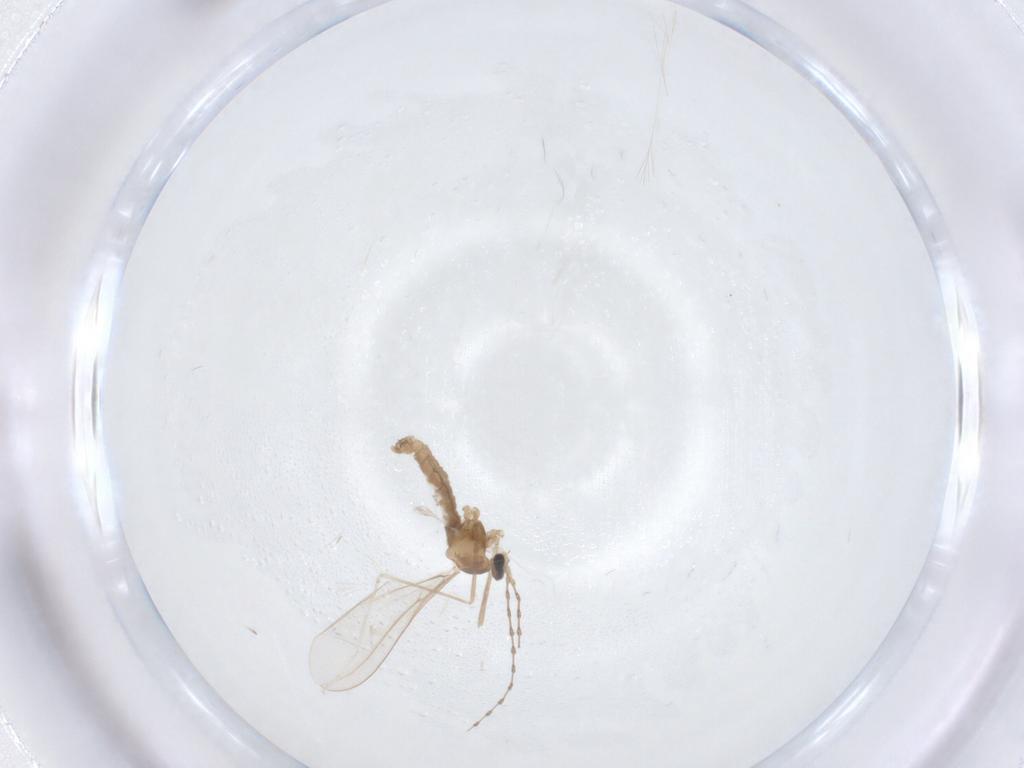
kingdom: Animalia
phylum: Arthropoda
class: Insecta
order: Diptera
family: Cecidomyiidae
